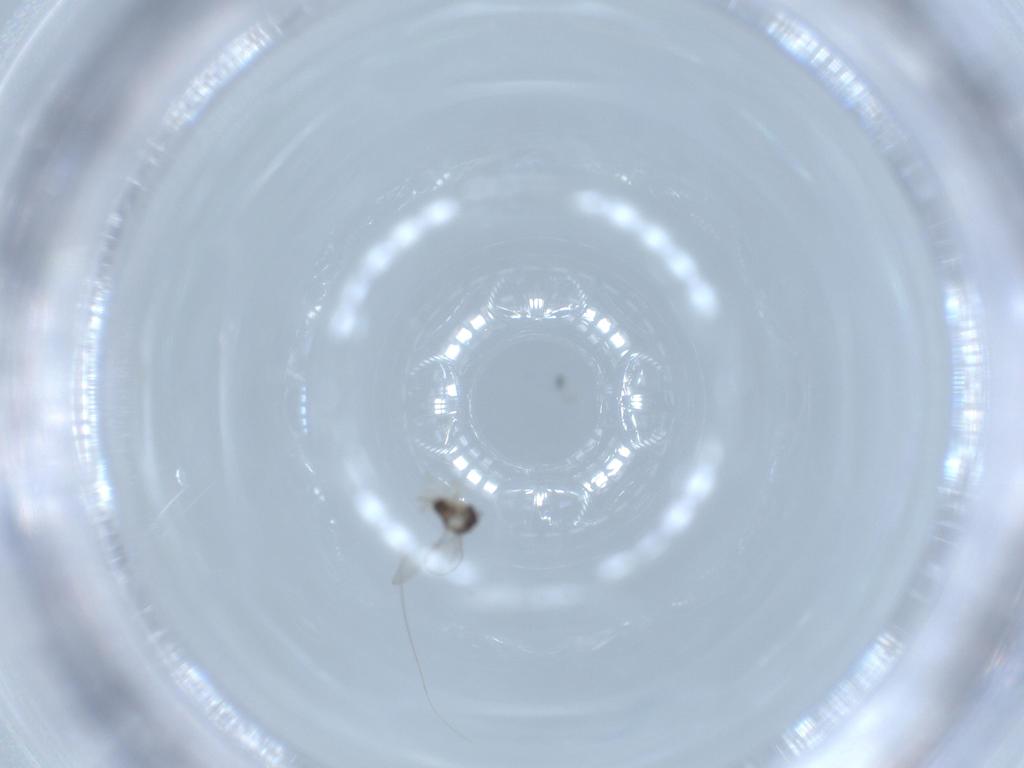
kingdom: Animalia
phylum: Arthropoda
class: Insecta
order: Diptera
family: Cecidomyiidae
